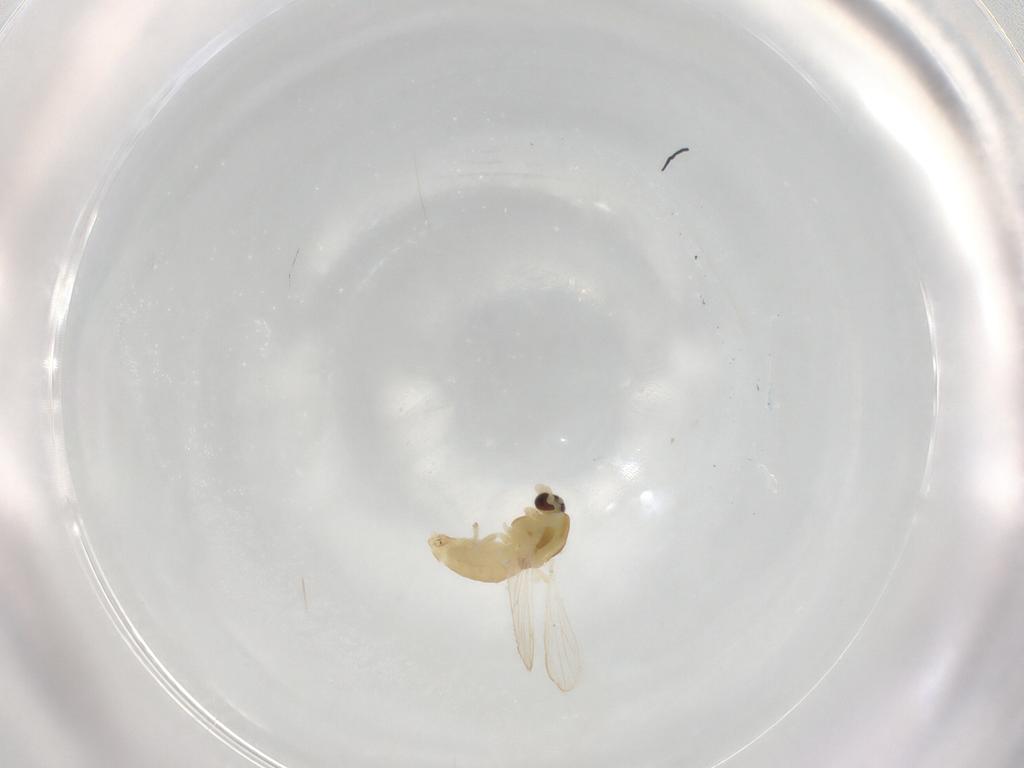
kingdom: Animalia
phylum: Arthropoda
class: Insecta
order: Diptera
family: Chironomidae
